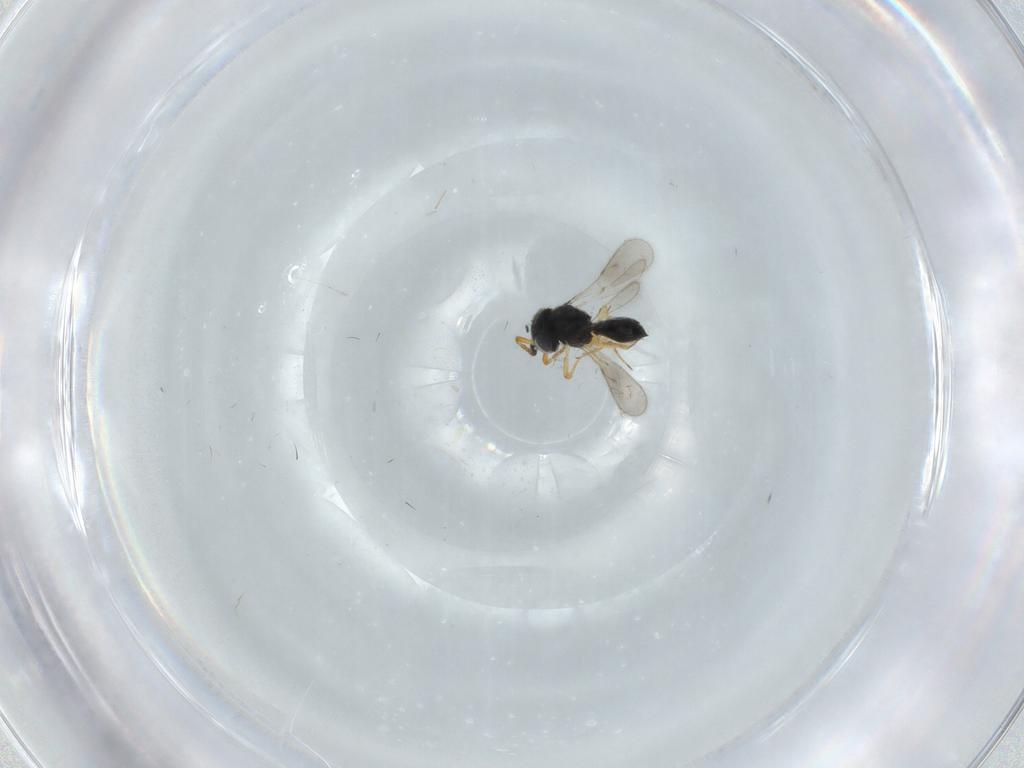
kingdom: Animalia
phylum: Arthropoda
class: Insecta
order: Hymenoptera
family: Scelionidae
